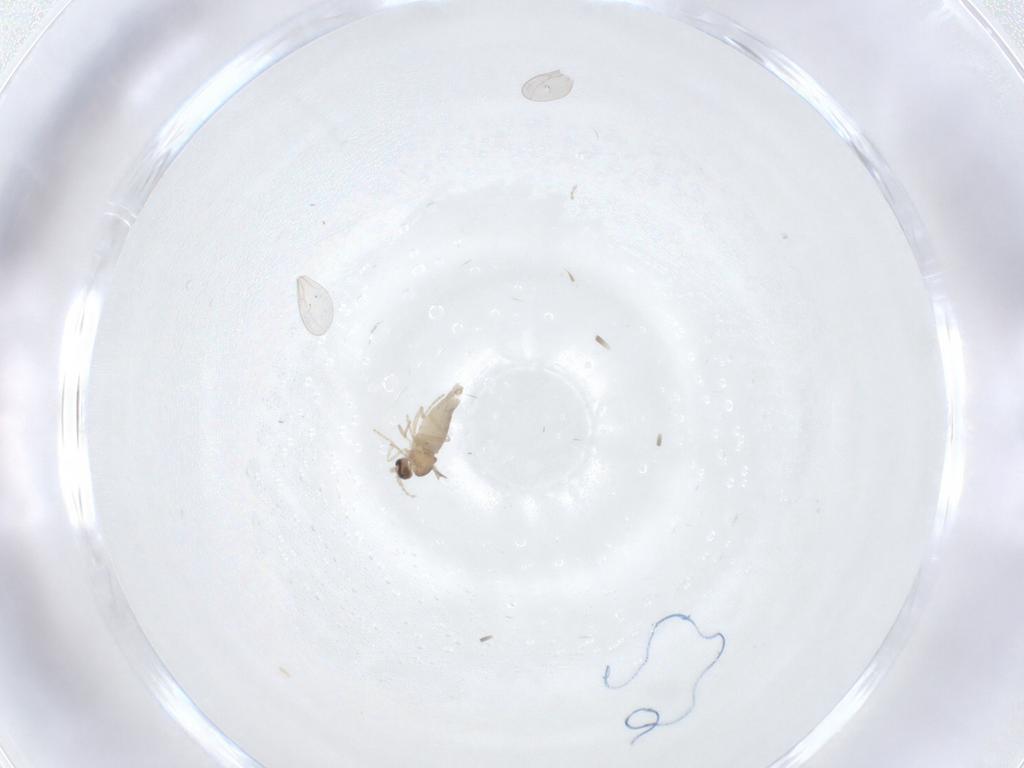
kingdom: Animalia
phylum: Arthropoda
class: Insecta
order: Diptera
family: Cecidomyiidae
